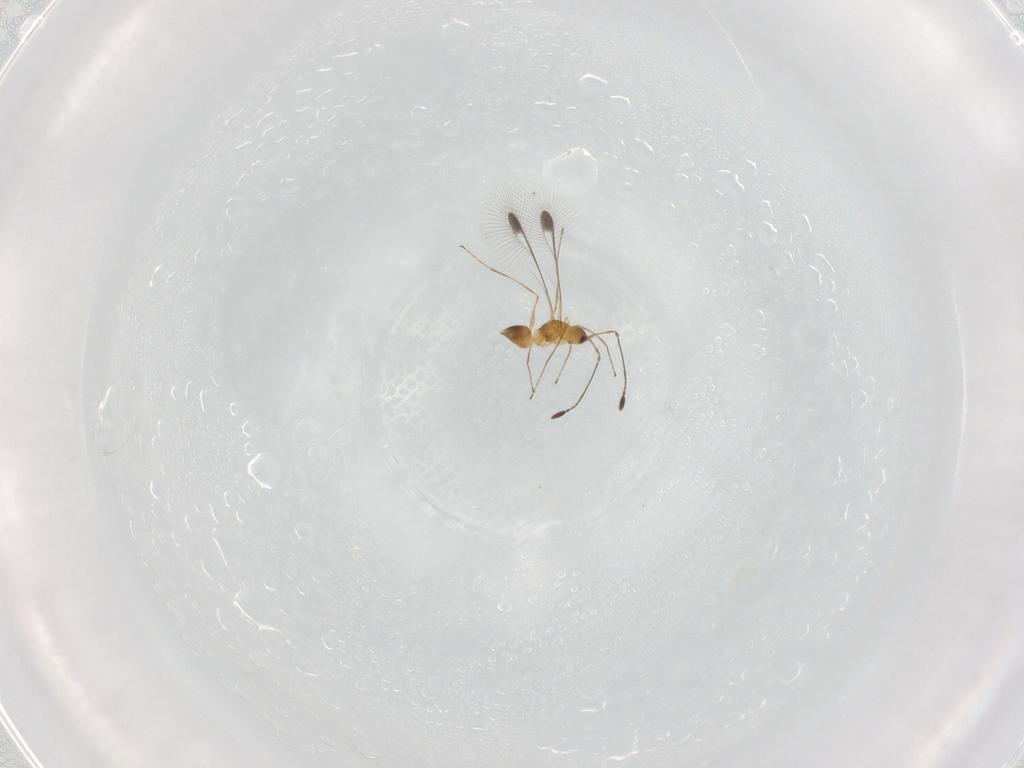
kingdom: Animalia
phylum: Arthropoda
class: Insecta
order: Hymenoptera
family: Mymaridae
